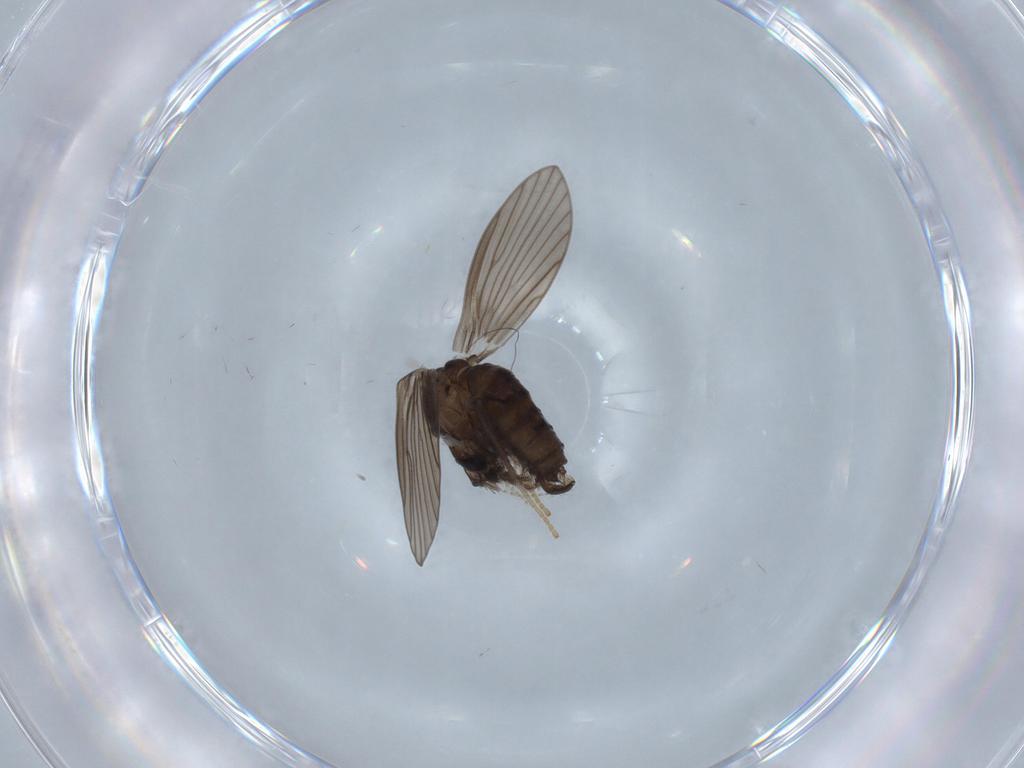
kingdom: Animalia
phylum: Arthropoda
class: Insecta
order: Diptera
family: Psychodidae
